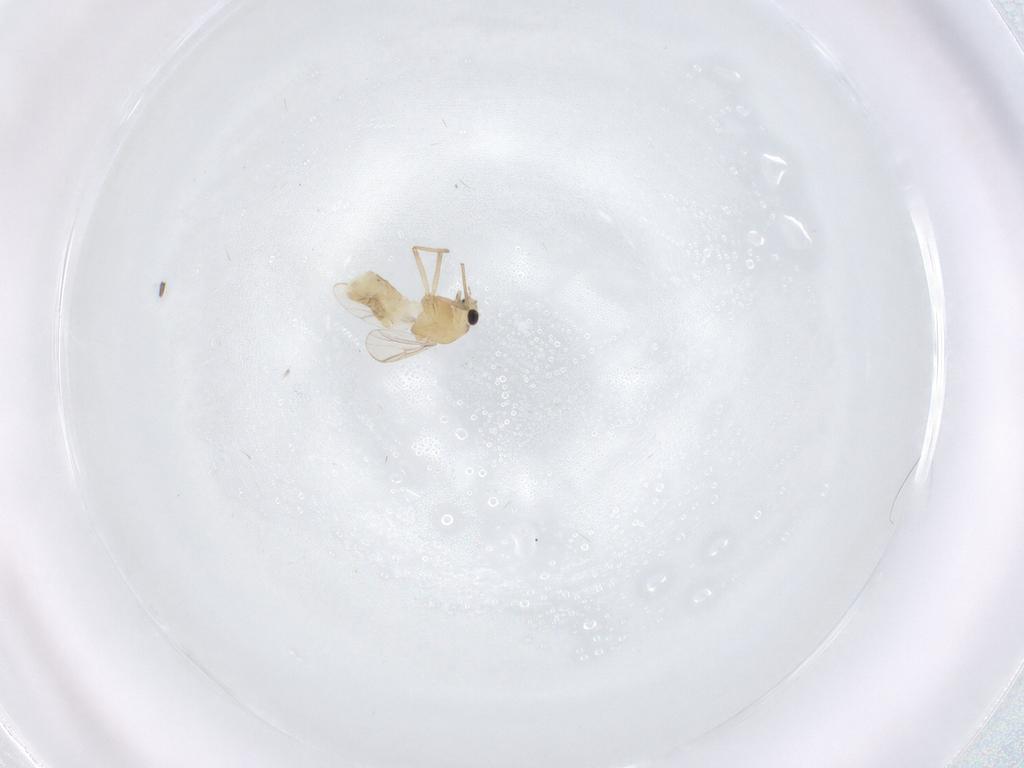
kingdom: Animalia
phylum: Arthropoda
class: Insecta
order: Diptera
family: Chironomidae
